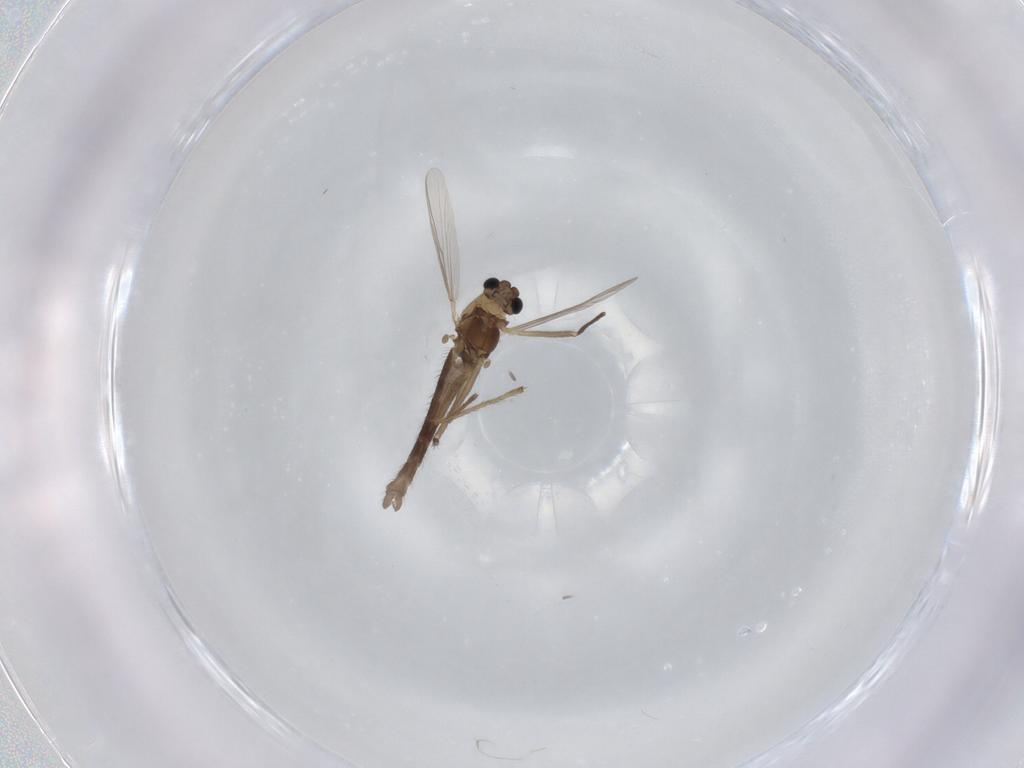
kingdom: Animalia
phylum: Arthropoda
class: Insecta
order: Diptera
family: Chironomidae
